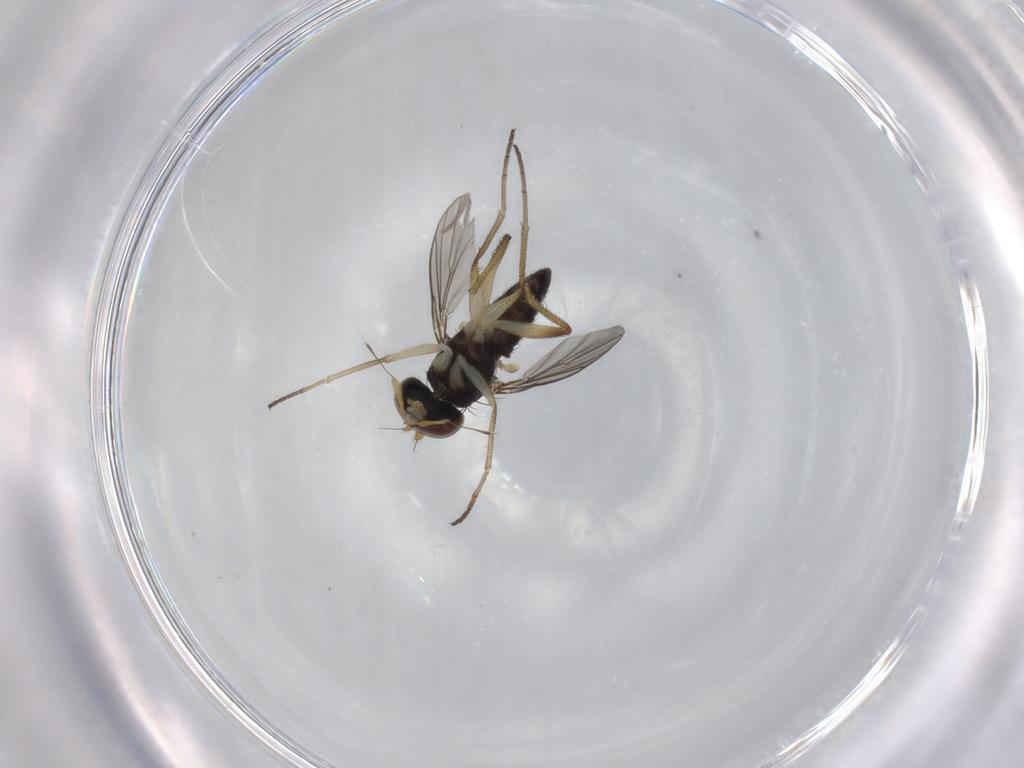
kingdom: Animalia
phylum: Arthropoda
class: Insecta
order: Diptera
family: Dolichopodidae
